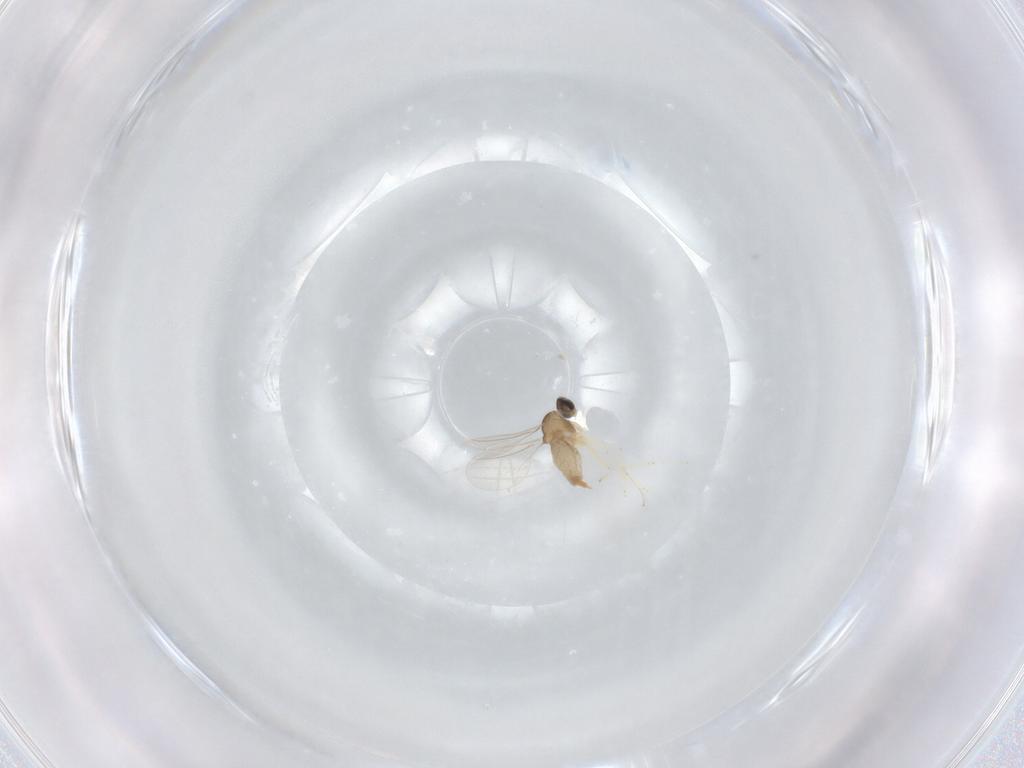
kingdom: Animalia
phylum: Arthropoda
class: Insecta
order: Diptera
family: Cecidomyiidae
